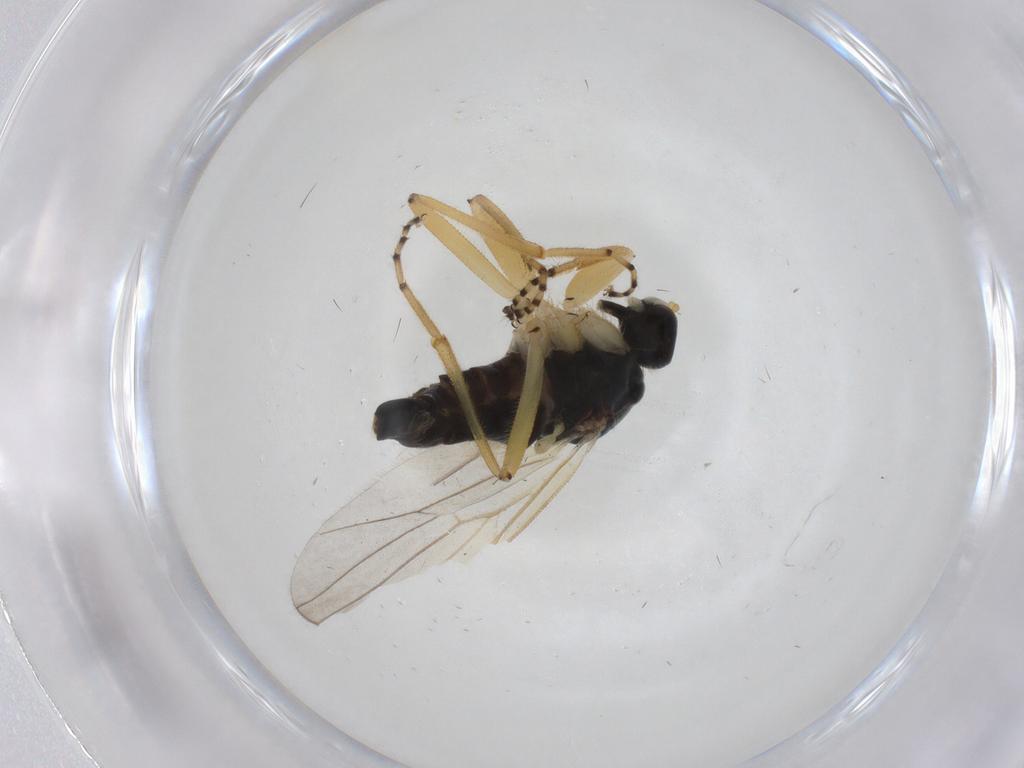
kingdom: Animalia
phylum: Arthropoda
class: Insecta
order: Diptera
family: Hybotidae
